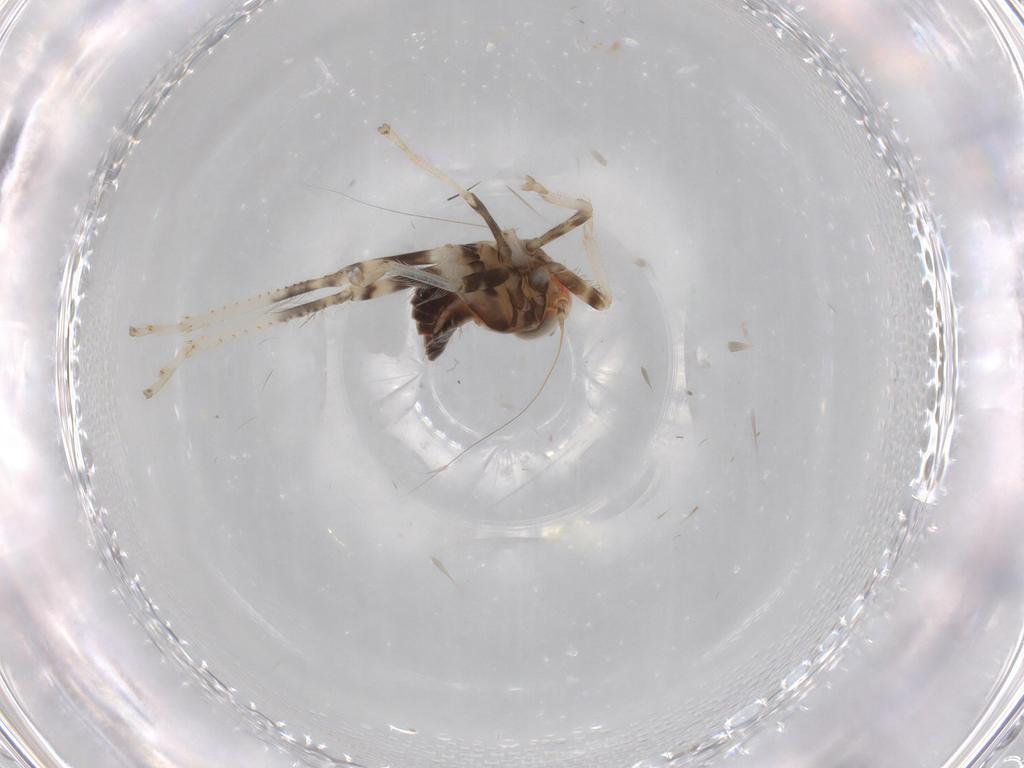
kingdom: Animalia
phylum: Arthropoda
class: Insecta
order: Hemiptera
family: Cicadellidae
